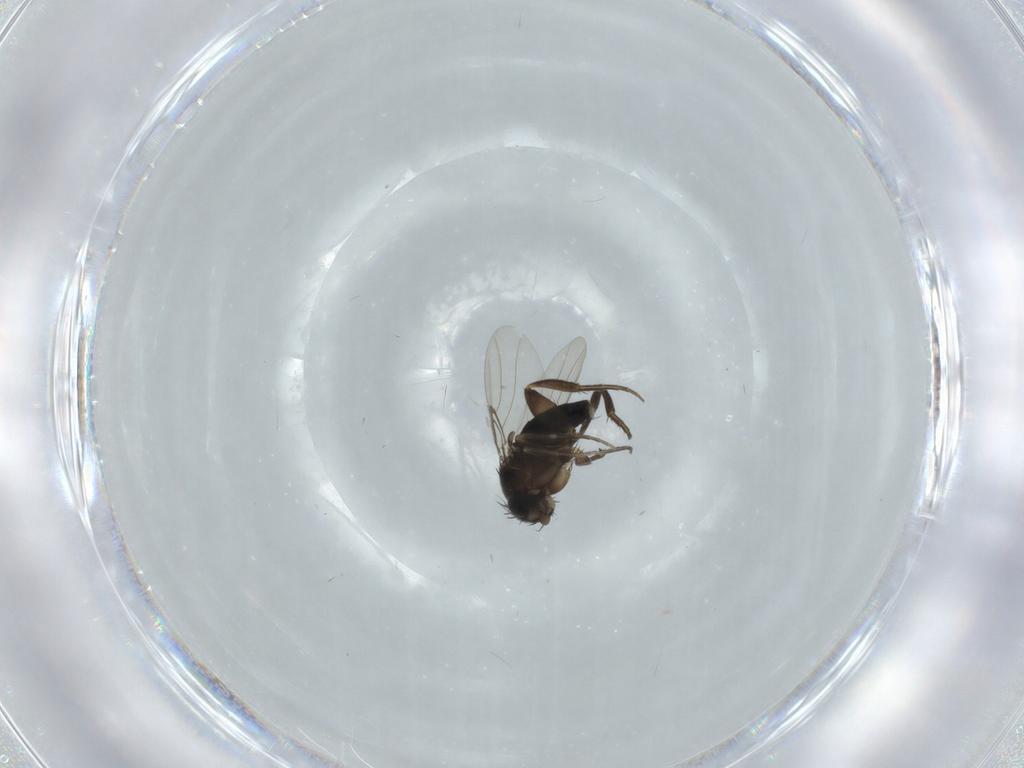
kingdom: Animalia
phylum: Arthropoda
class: Insecta
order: Diptera
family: Phoridae
